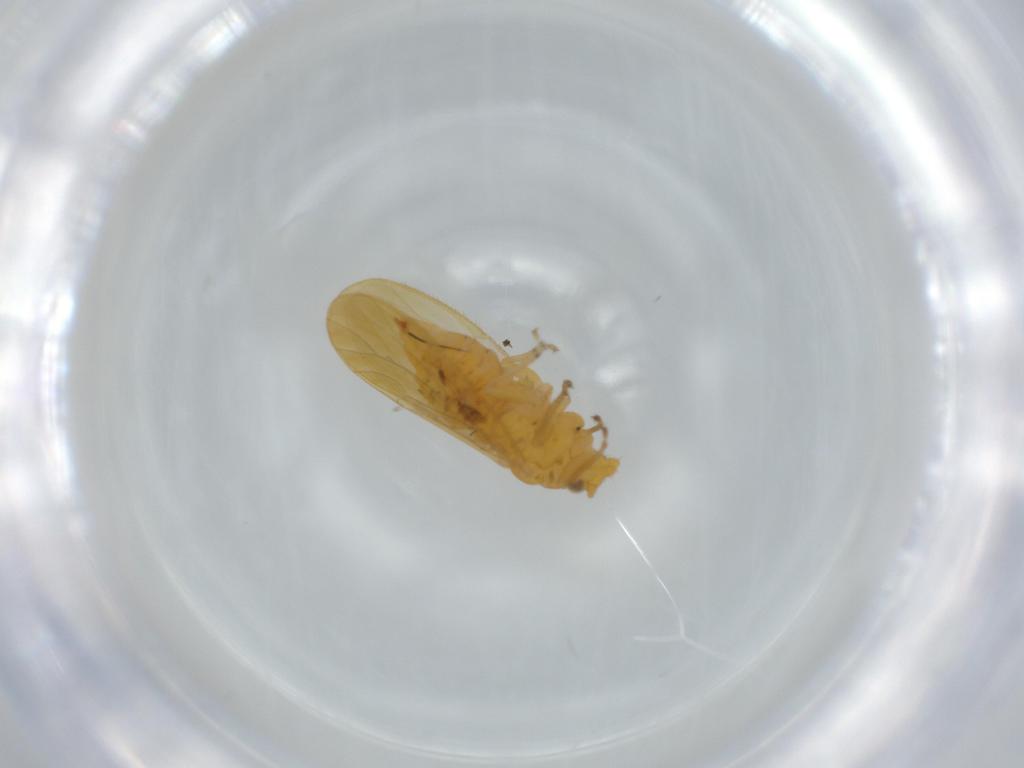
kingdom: Animalia
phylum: Arthropoda
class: Insecta
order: Hemiptera
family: Psyllidae
